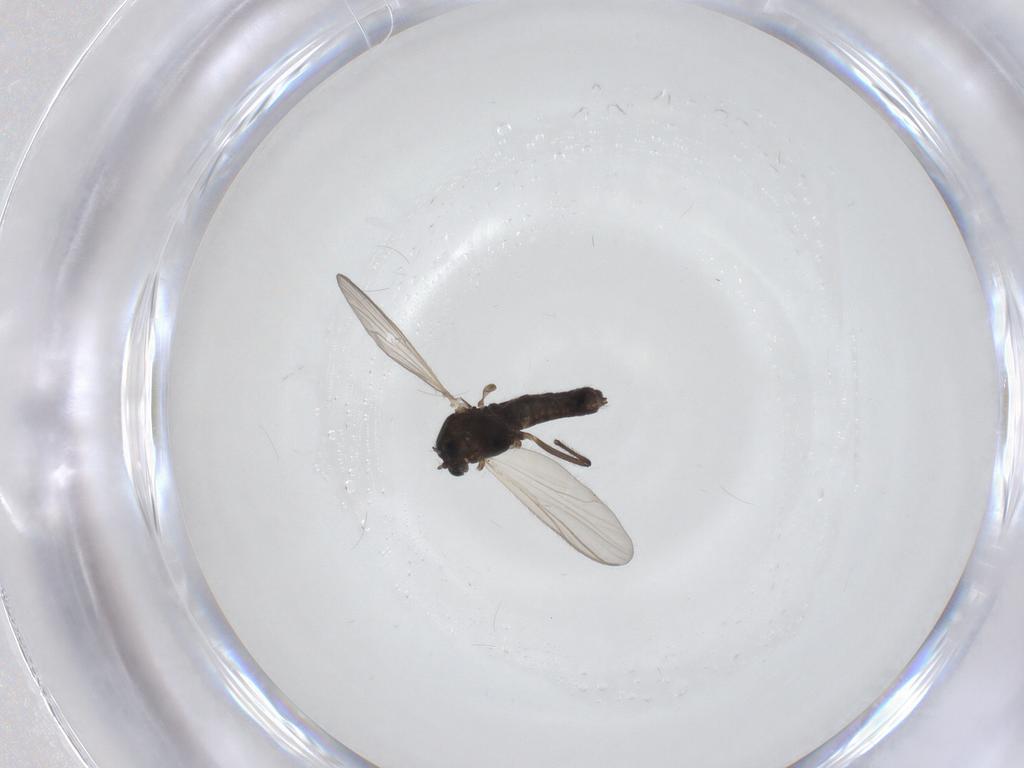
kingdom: Animalia
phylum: Arthropoda
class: Insecta
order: Diptera
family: Chironomidae
